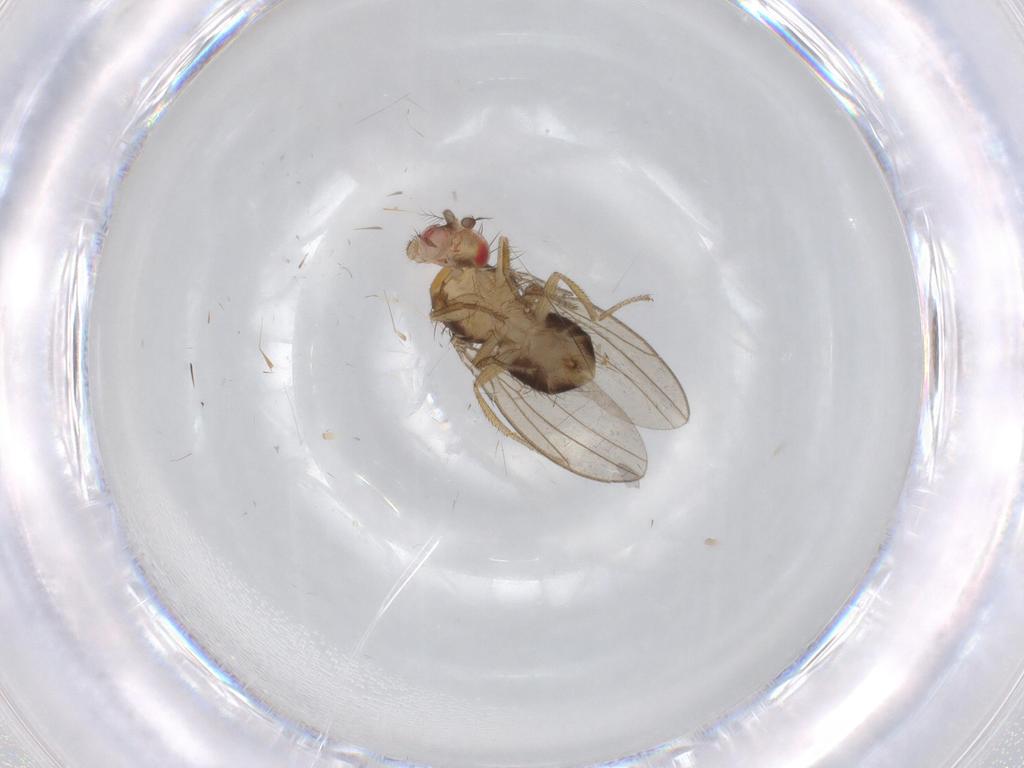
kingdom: Animalia
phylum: Arthropoda
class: Insecta
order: Diptera
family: Drosophilidae
